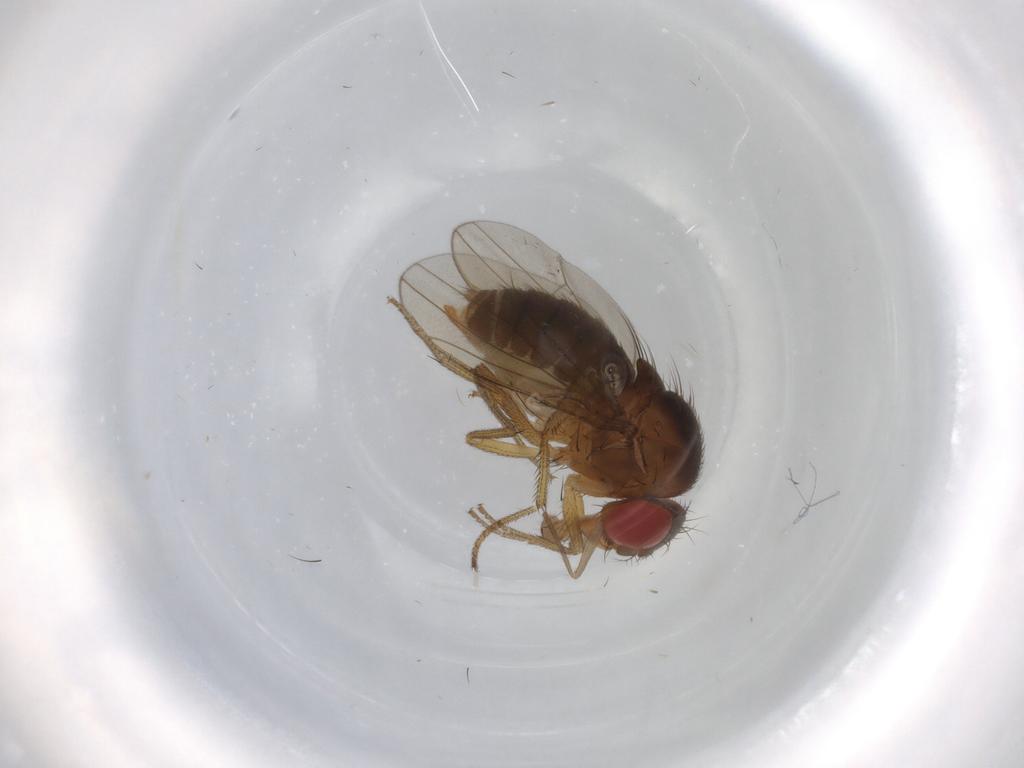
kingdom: Animalia
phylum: Arthropoda
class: Insecta
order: Diptera
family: Drosophilidae
